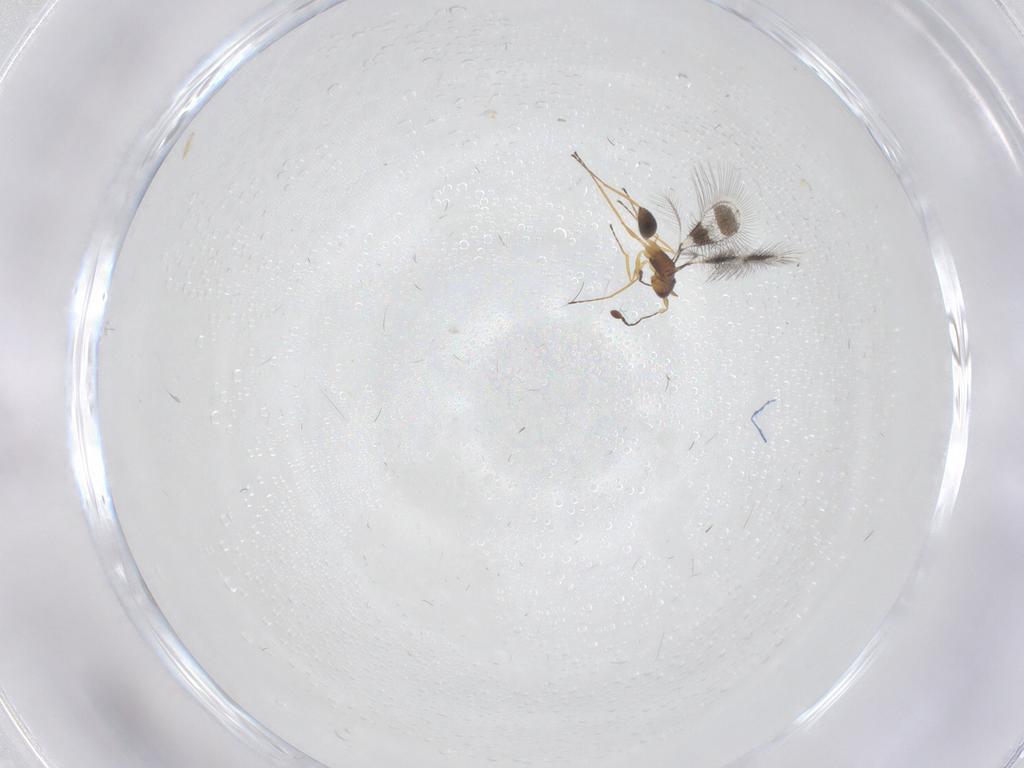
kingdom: Animalia
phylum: Arthropoda
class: Insecta
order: Hymenoptera
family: Mymaridae
